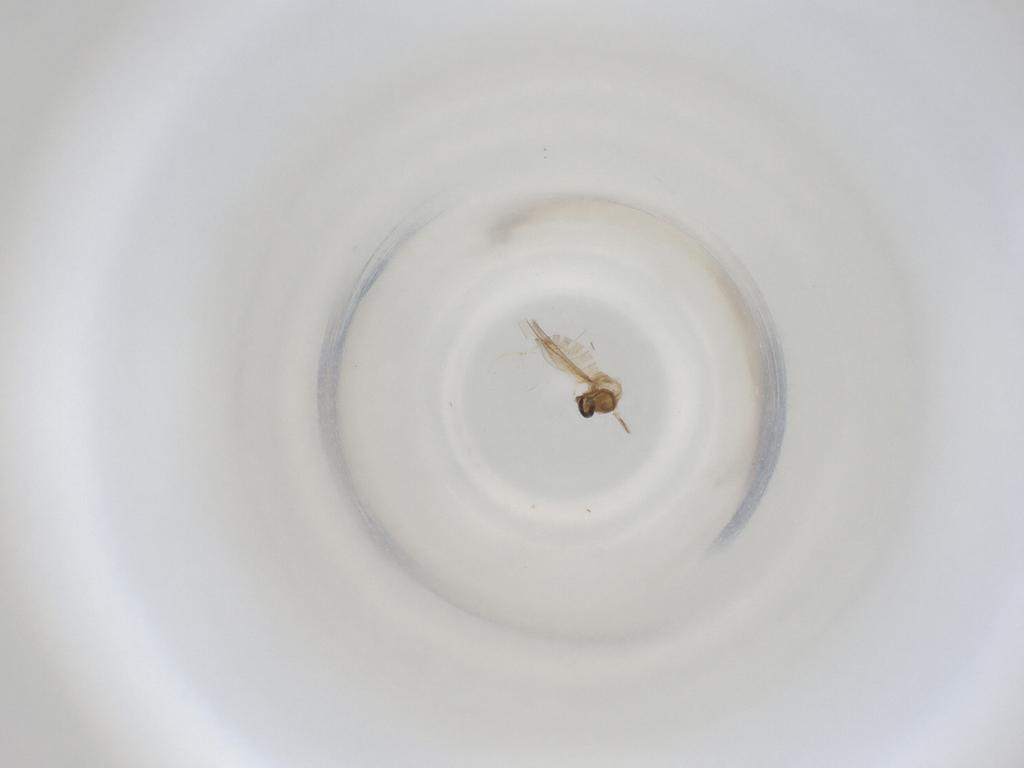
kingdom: Animalia
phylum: Arthropoda
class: Insecta
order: Diptera
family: Cecidomyiidae
